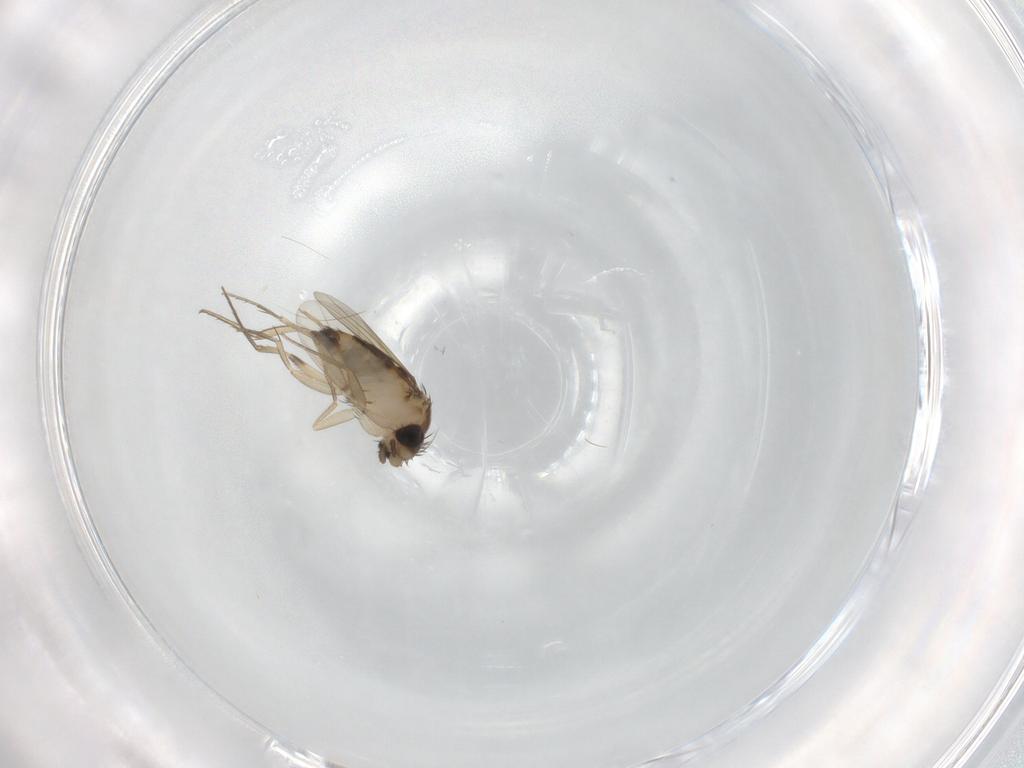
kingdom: Animalia
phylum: Arthropoda
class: Insecta
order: Diptera
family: Phoridae
